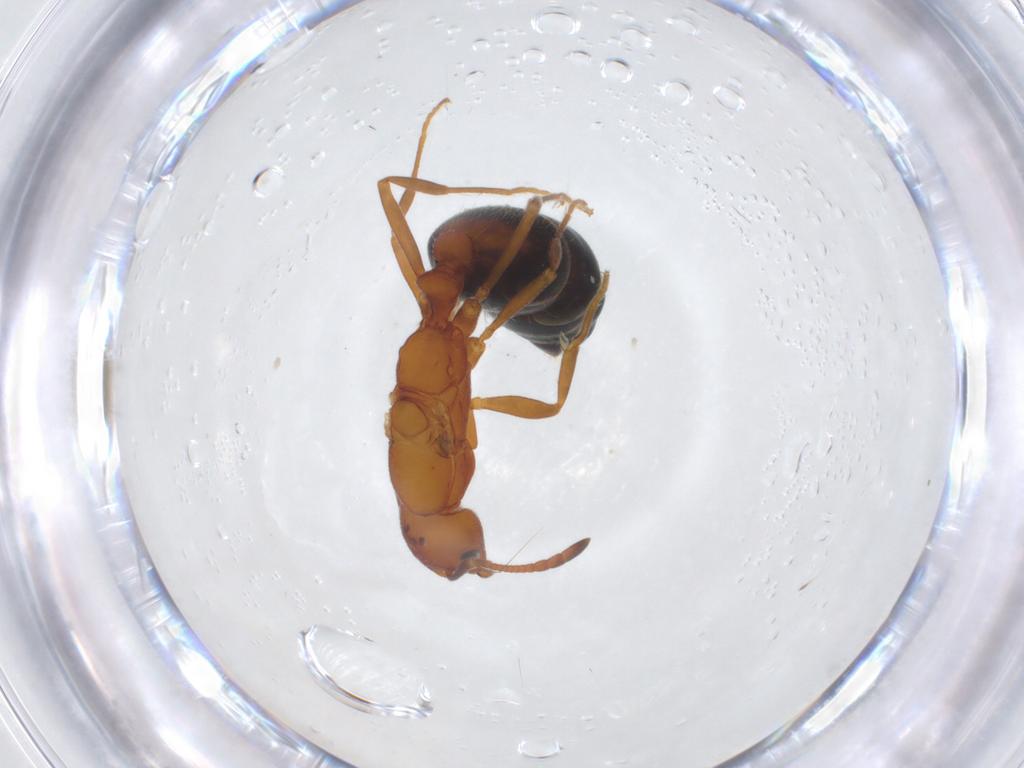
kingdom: Animalia
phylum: Arthropoda
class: Insecta
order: Hymenoptera
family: Formicidae
